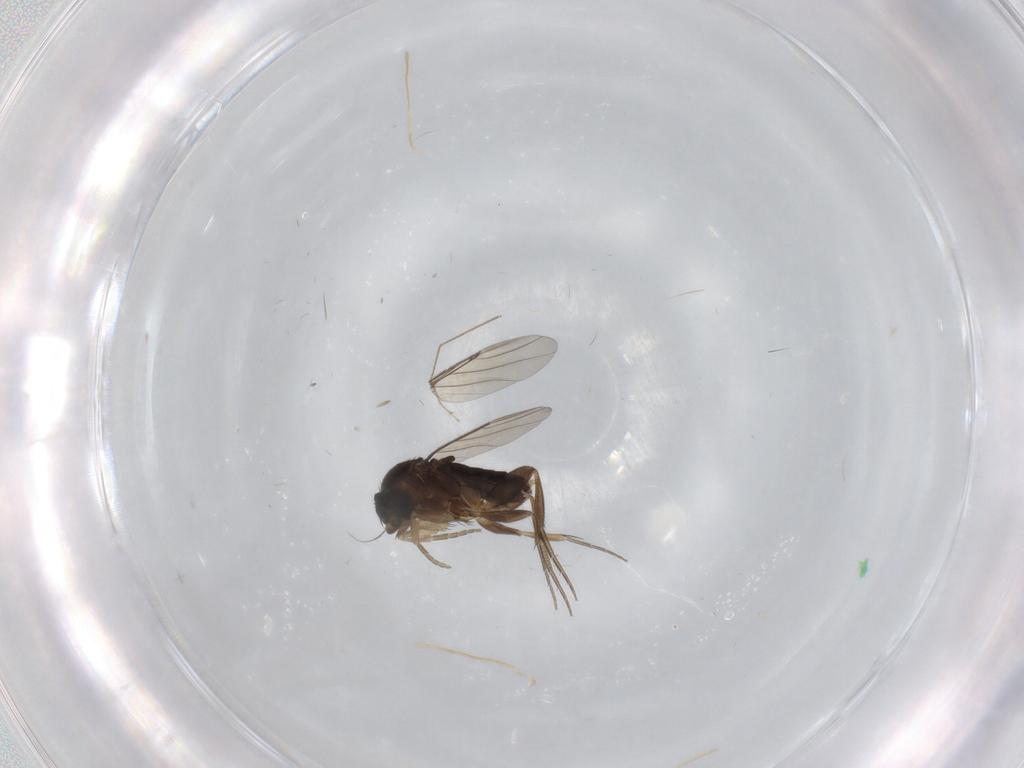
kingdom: Animalia
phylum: Arthropoda
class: Insecta
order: Diptera
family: Phoridae
